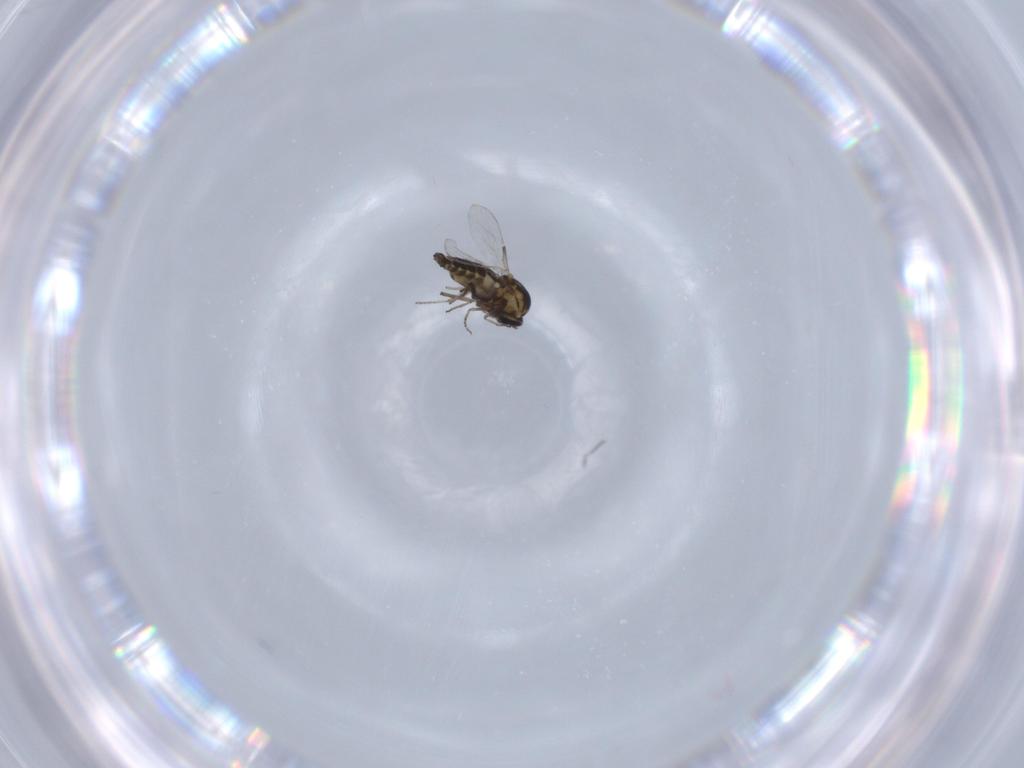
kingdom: Animalia
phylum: Arthropoda
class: Insecta
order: Diptera
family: Ceratopogonidae
